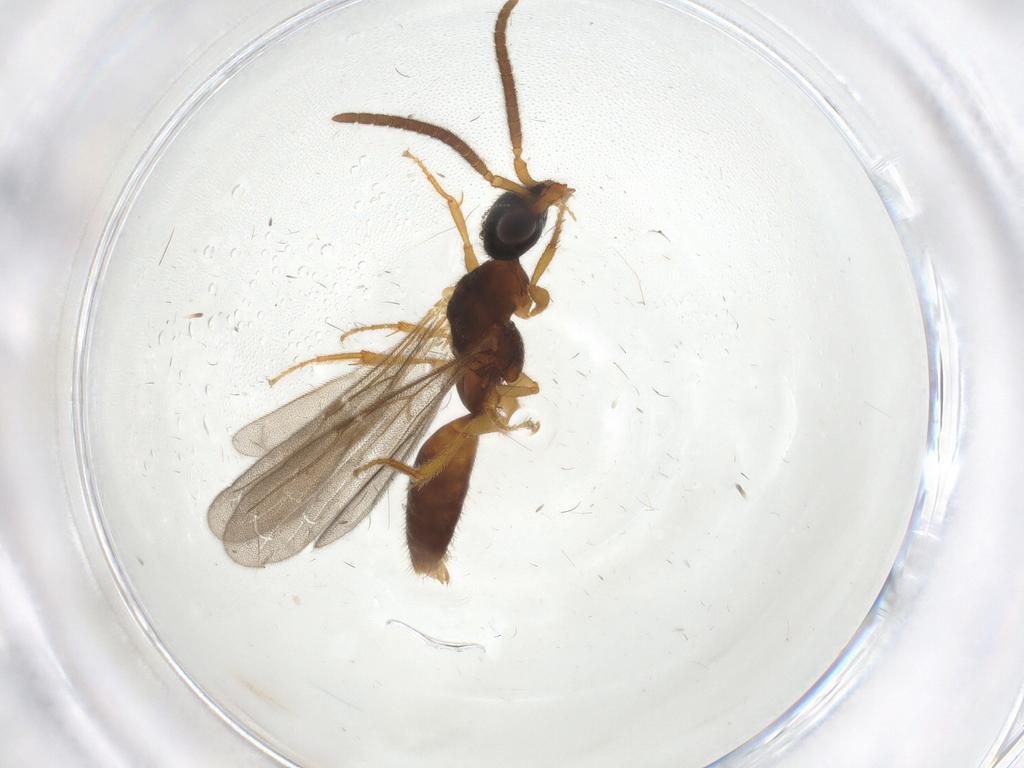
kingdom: Animalia
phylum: Arthropoda
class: Insecta
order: Hymenoptera
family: Bethylidae
